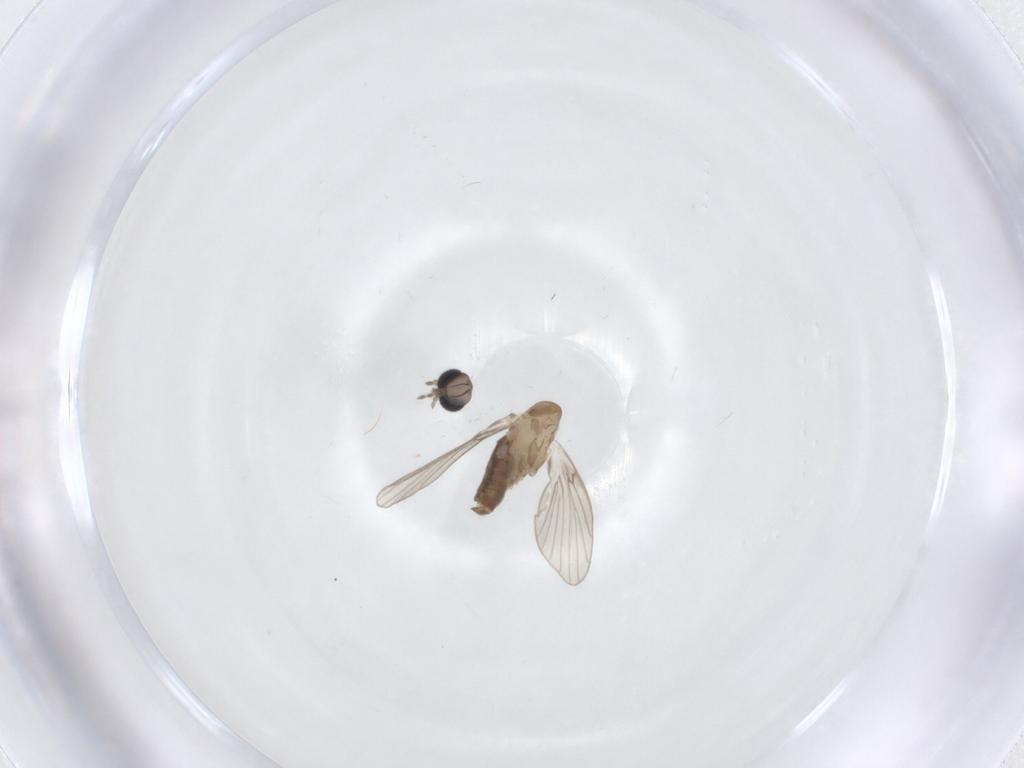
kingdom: Animalia
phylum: Arthropoda
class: Insecta
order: Diptera
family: Psychodidae
